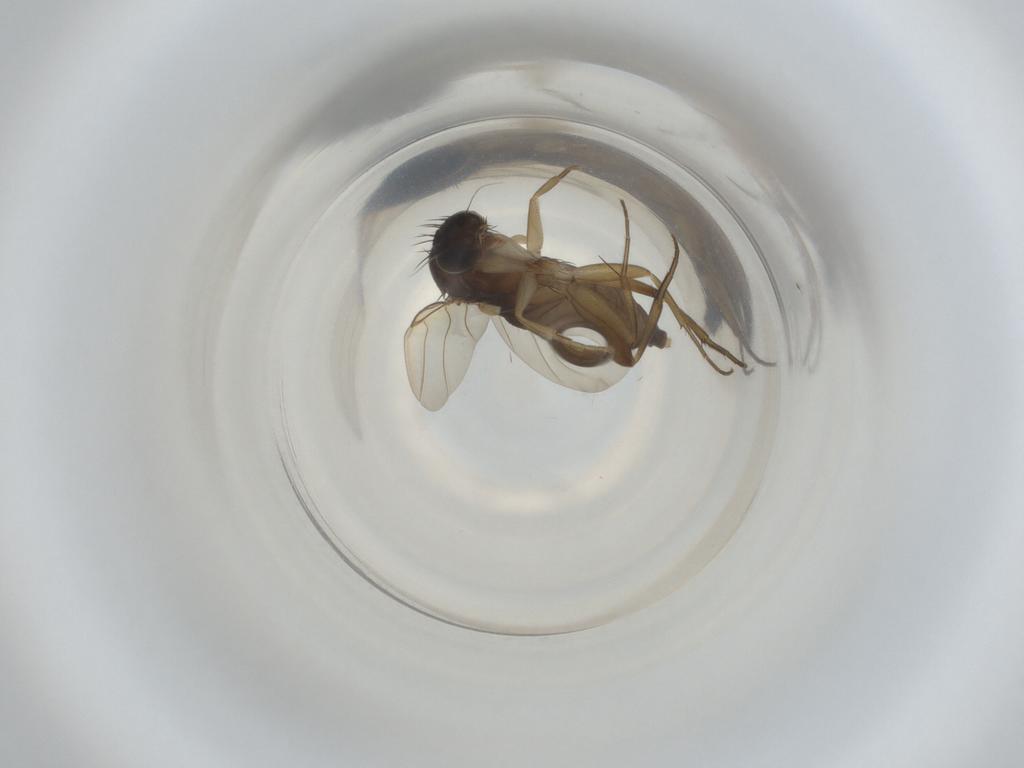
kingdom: Animalia
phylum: Arthropoda
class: Insecta
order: Diptera
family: Phoridae
